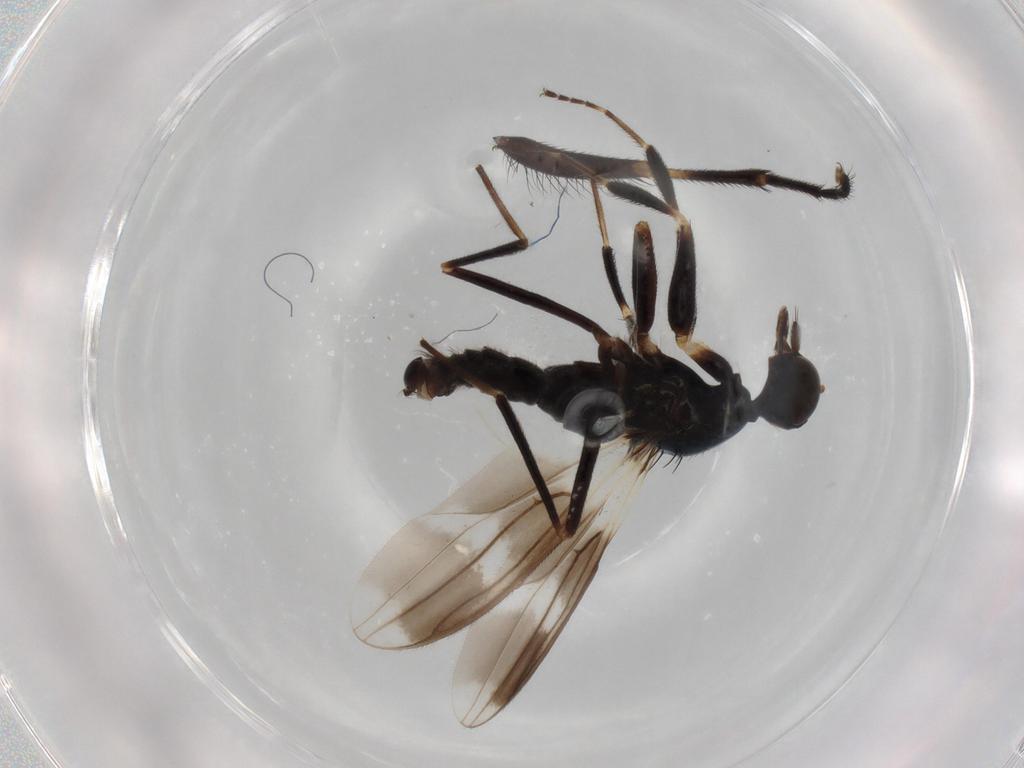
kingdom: Animalia
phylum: Arthropoda
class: Insecta
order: Diptera
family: Hybotidae
